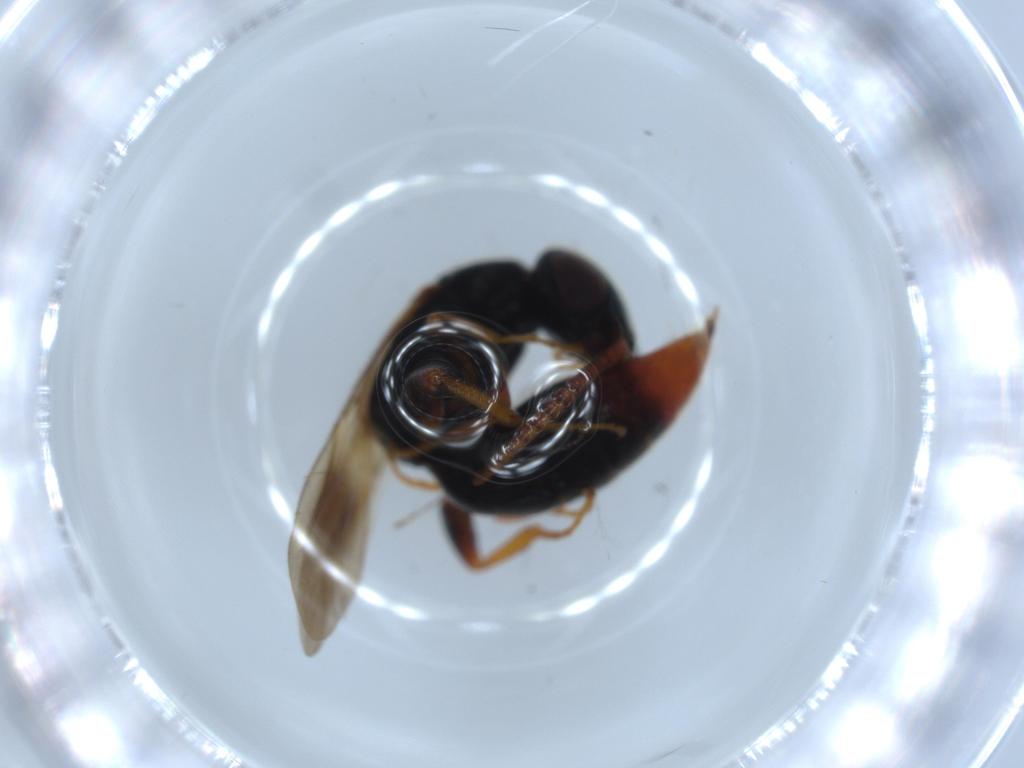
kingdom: Animalia
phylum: Arthropoda
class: Insecta
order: Hymenoptera
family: Bethylidae
